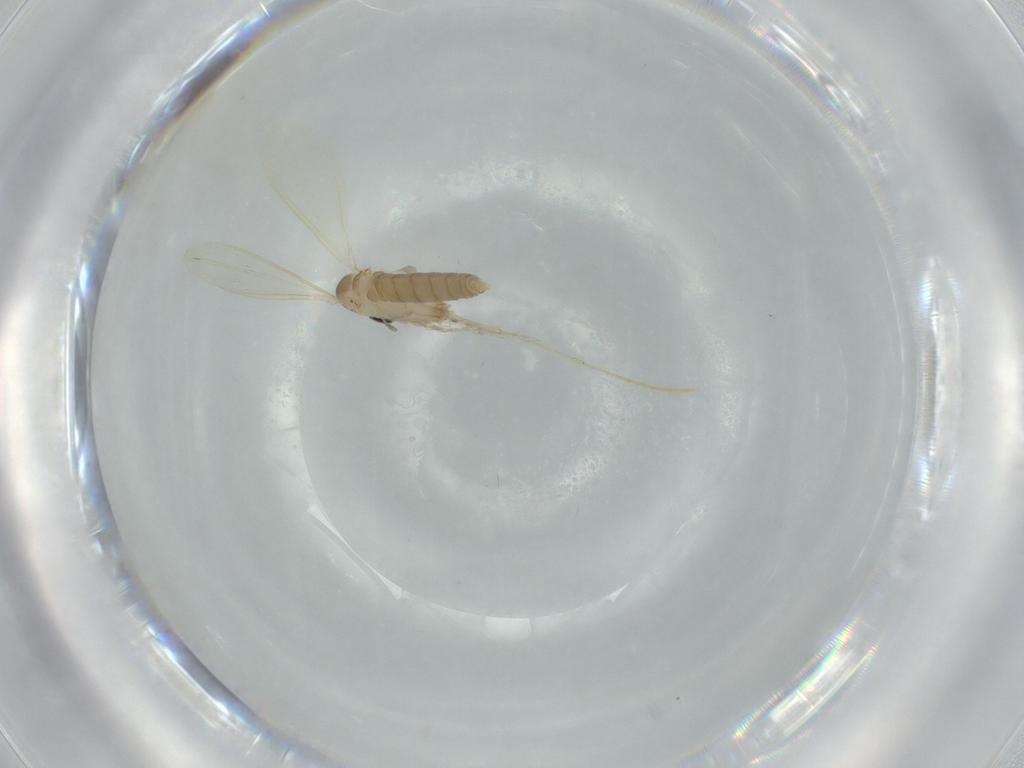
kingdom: Animalia
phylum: Arthropoda
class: Insecta
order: Diptera
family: Psychodidae
